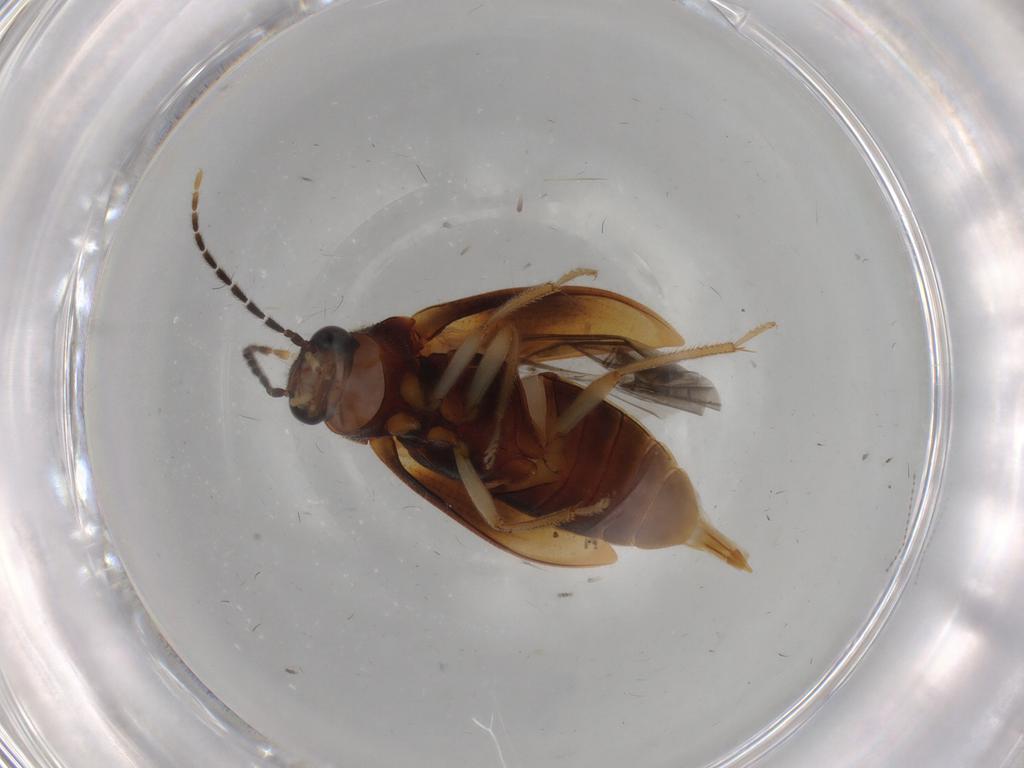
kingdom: Animalia
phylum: Arthropoda
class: Insecta
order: Coleoptera
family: Ptilodactylidae
